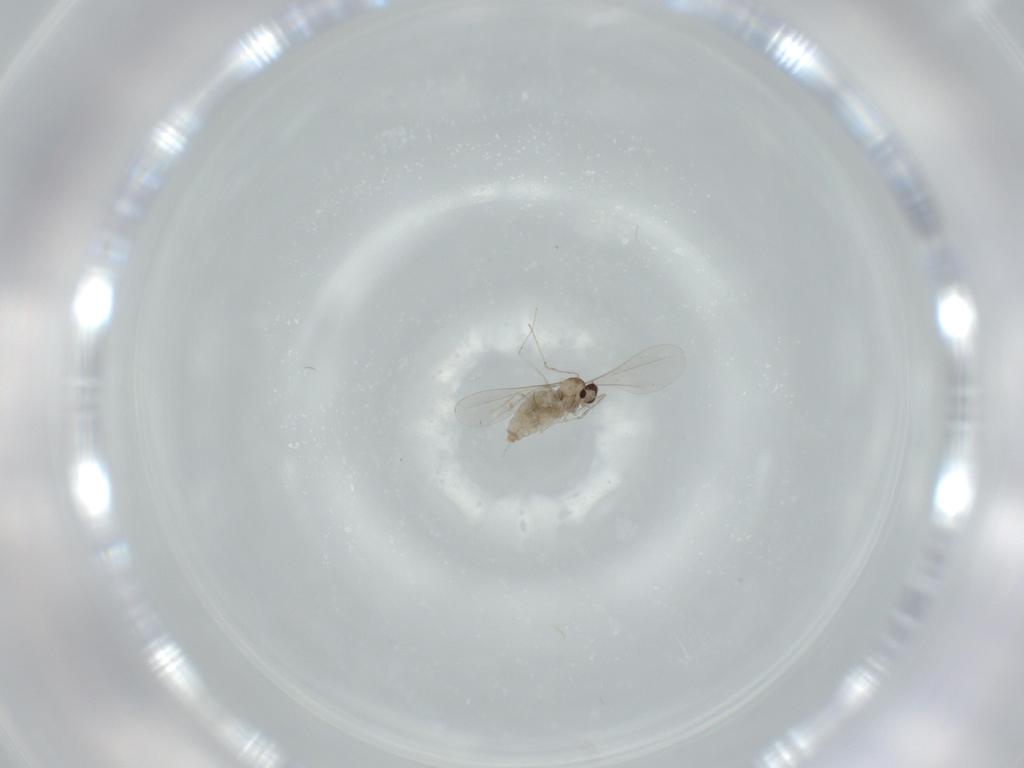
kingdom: Animalia
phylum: Arthropoda
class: Insecta
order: Diptera
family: Cecidomyiidae
